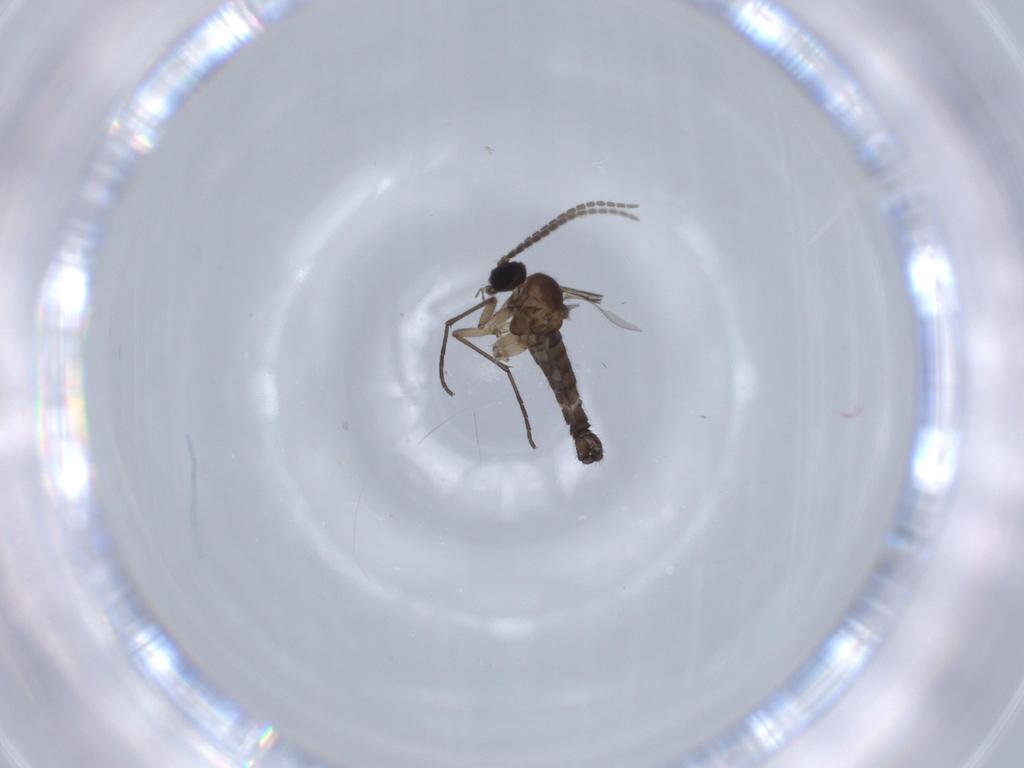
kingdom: Animalia
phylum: Arthropoda
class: Insecta
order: Diptera
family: Sciaridae
